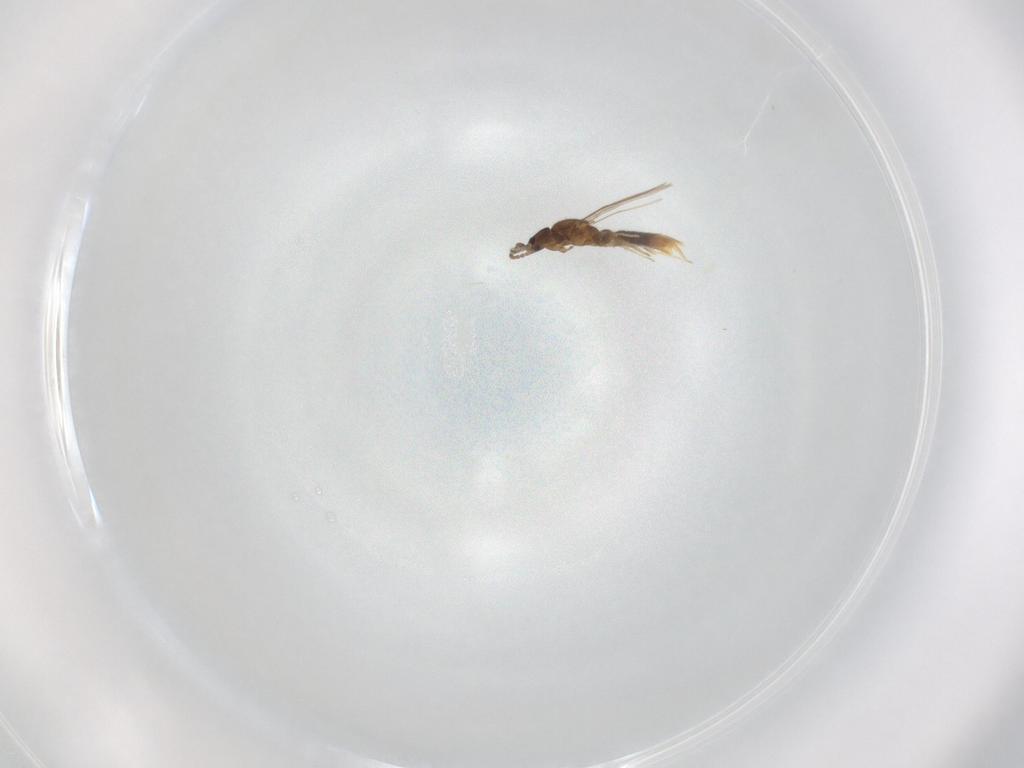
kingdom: Animalia
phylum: Arthropoda
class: Insecta
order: Hymenoptera
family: Formicidae
